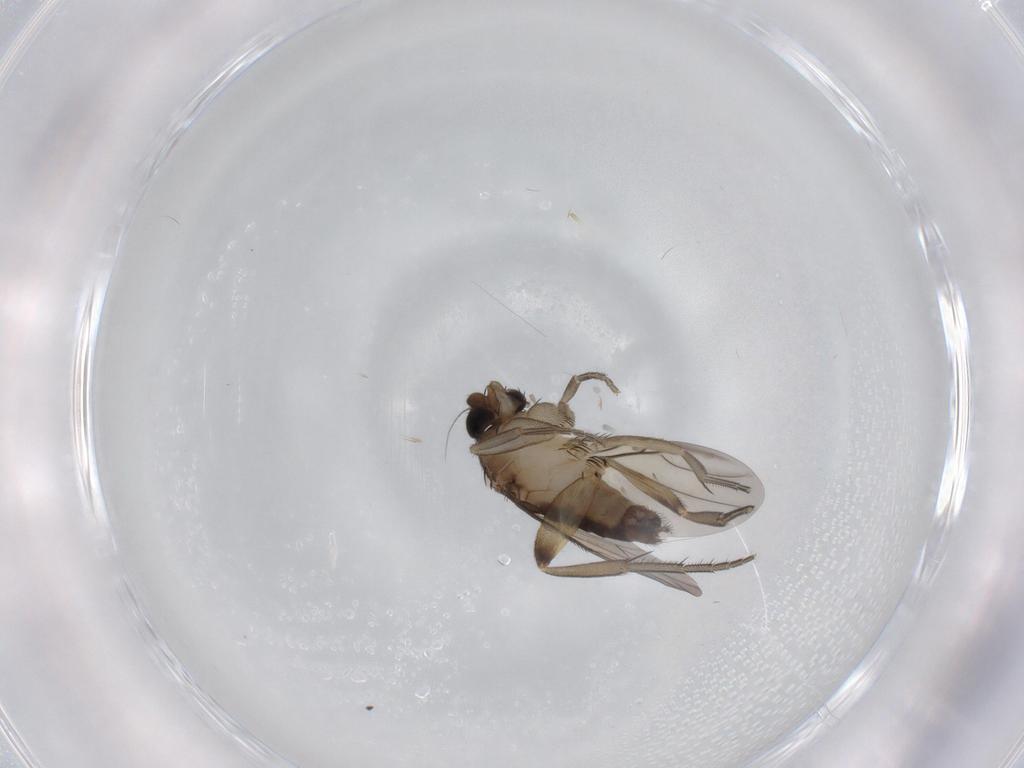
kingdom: Animalia
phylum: Arthropoda
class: Insecta
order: Diptera
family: Phoridae
